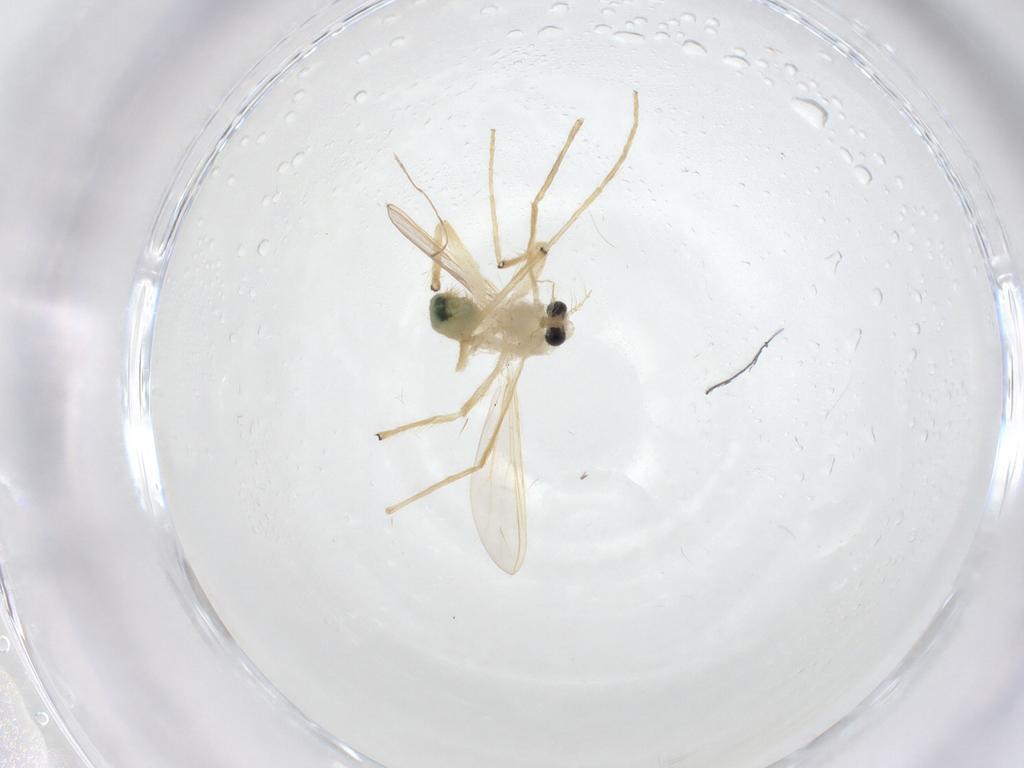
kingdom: Animalia
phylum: Arthropoda
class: Insecta
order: Diptera
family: Chironomidae
